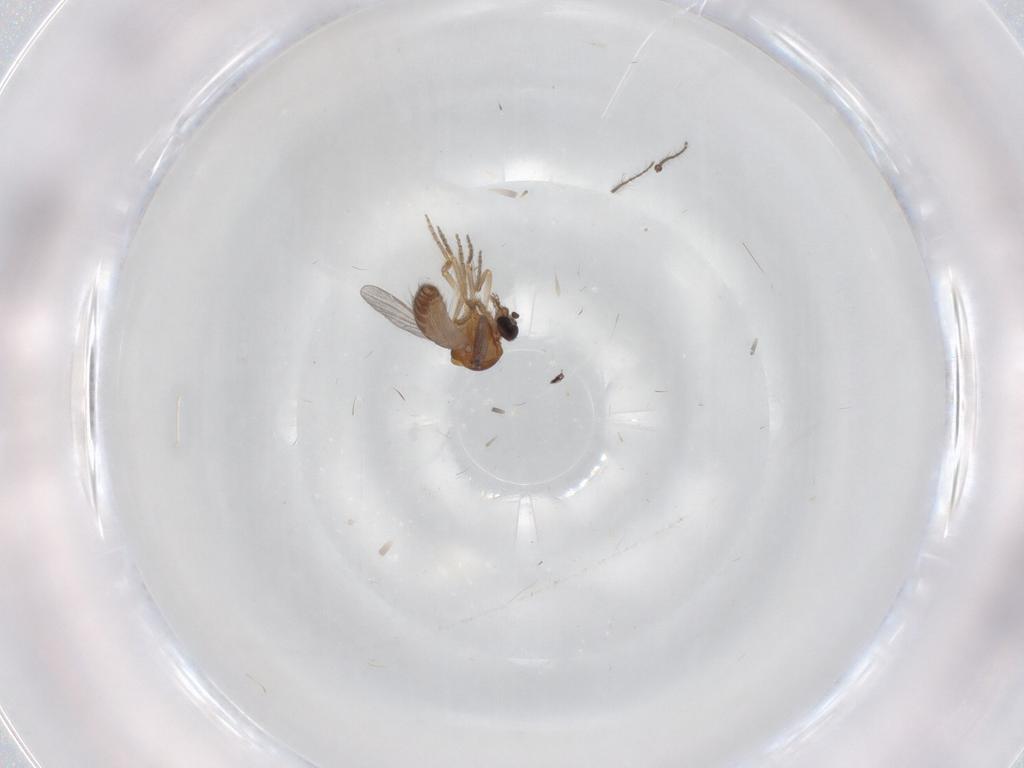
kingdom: Animalia
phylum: Arthropoda
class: Insecta
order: Diptera
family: Ceratopogonidae
